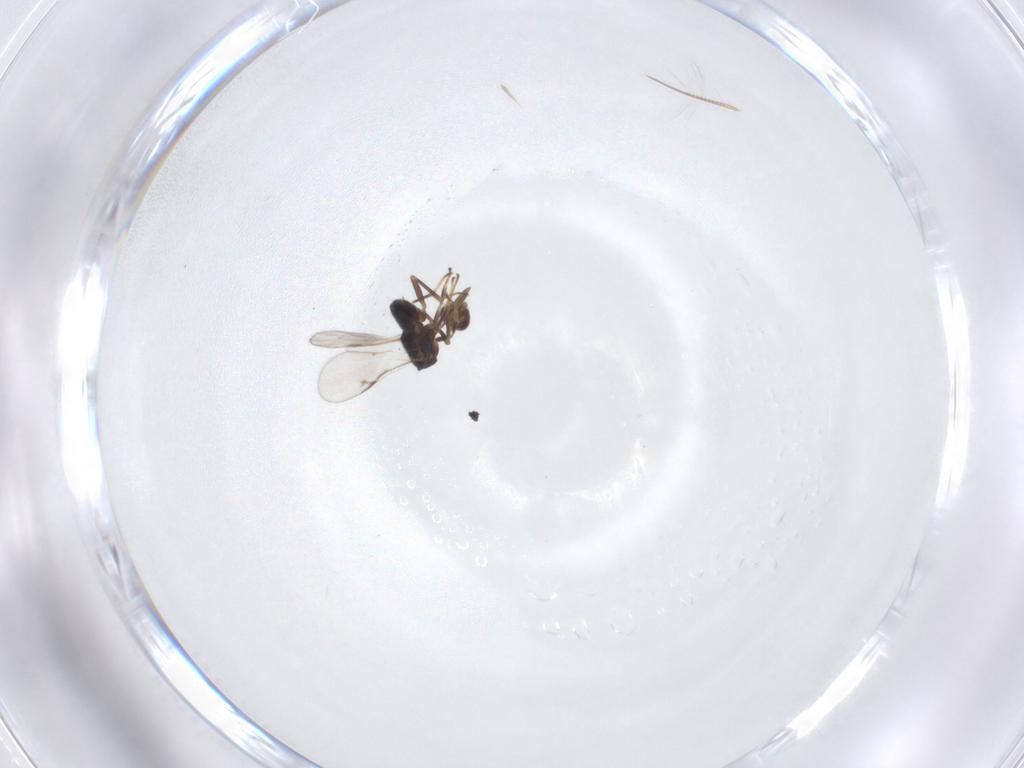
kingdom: Animalia
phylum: Arthropoda
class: Insecta
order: Hymenoptera
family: Mymaridae
